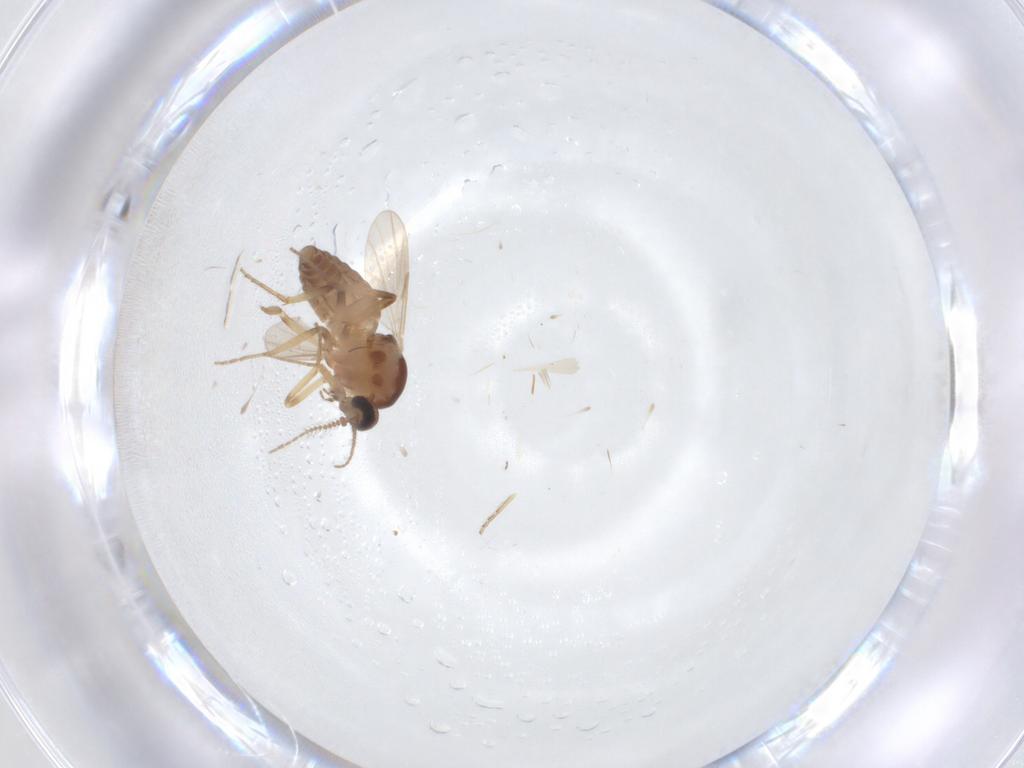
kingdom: Animalia
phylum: Arthropoda
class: Insecta
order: Diptera
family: Ceratopogonidae
